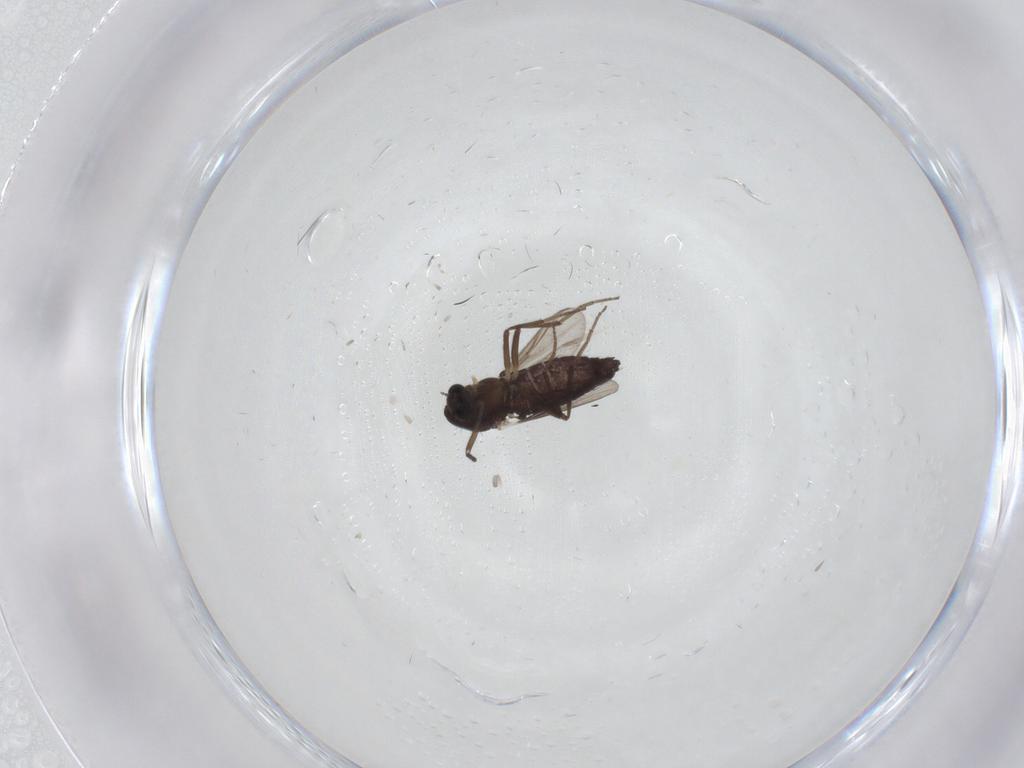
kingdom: Animalia
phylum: Arthropoda
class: Insecta
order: Diptera
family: Chironomidae
